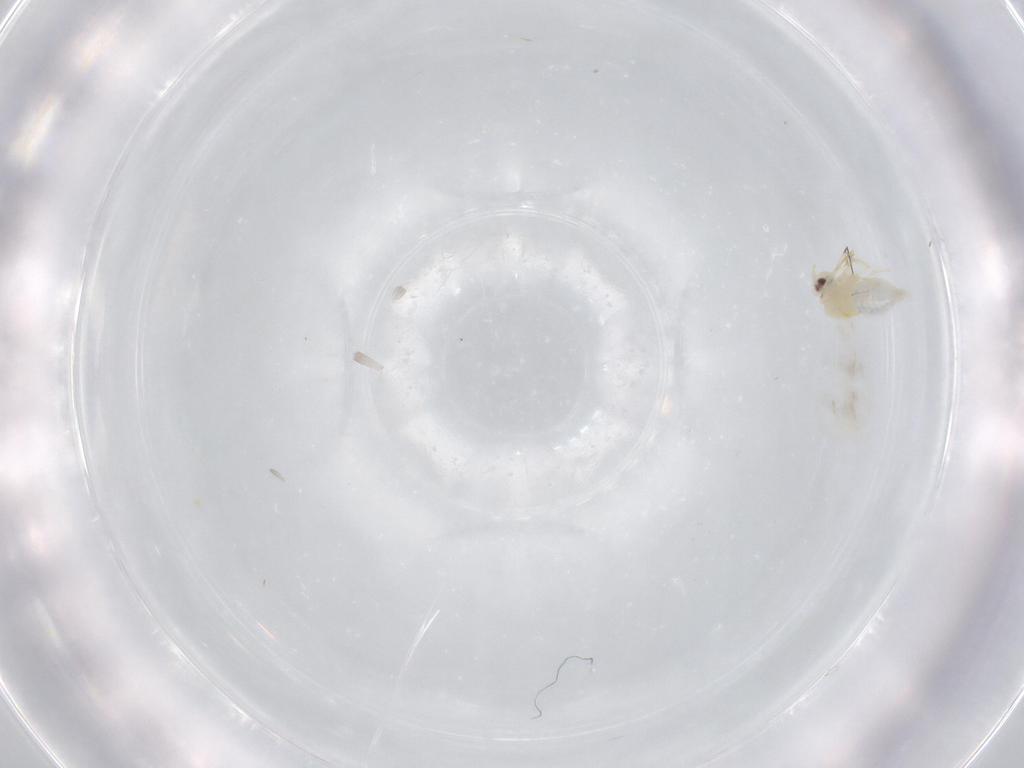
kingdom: Animalia
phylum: Arthropoda
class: Insecta
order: Hemiptera
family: Aleyrodidae
